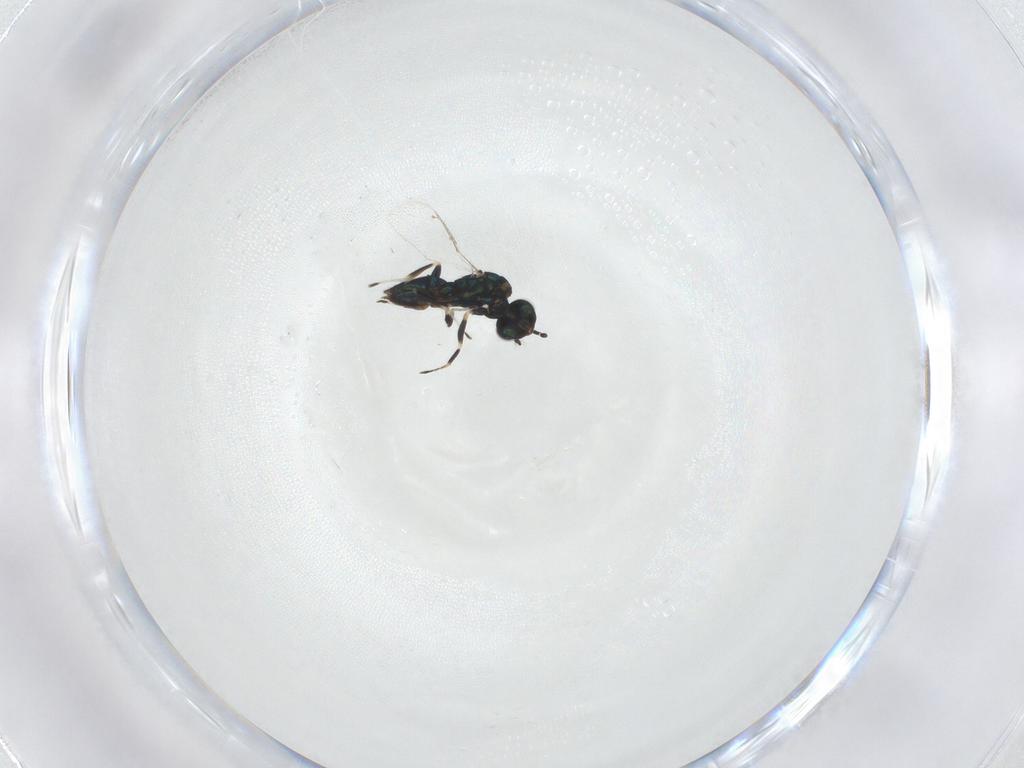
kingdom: Animalia
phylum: Arthropoda
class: Insecta
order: Hymenoptera
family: Eulophidae
